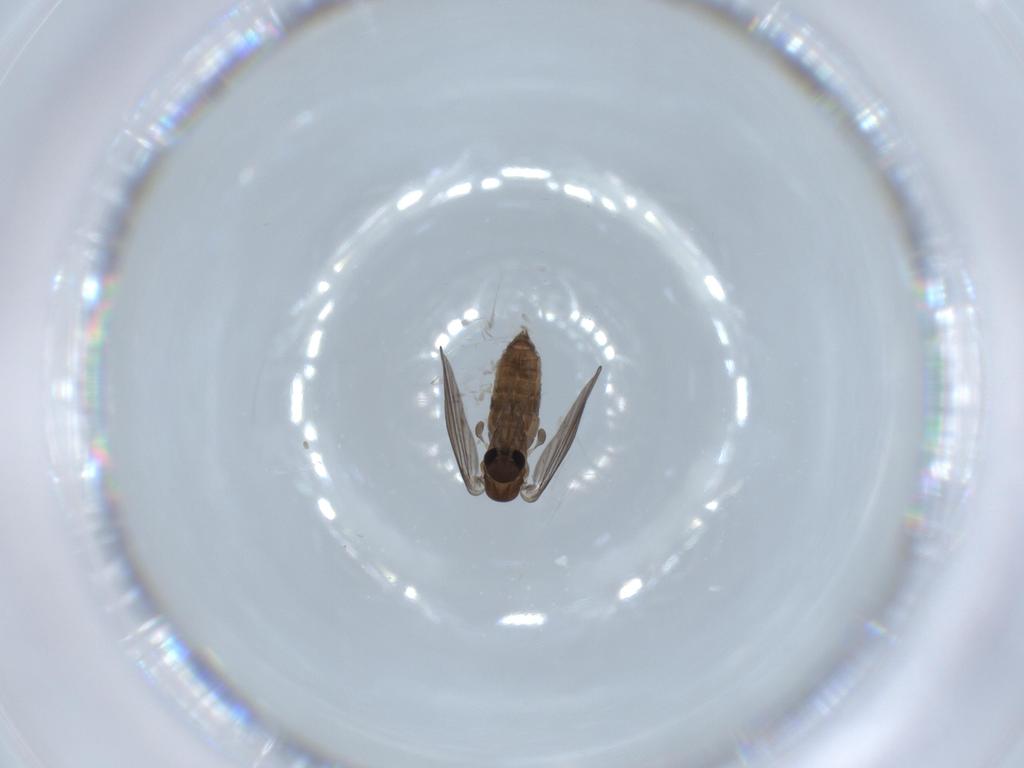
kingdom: Animalia
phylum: Arthropoda
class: Insecta
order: Diptera
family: Psychodidae
